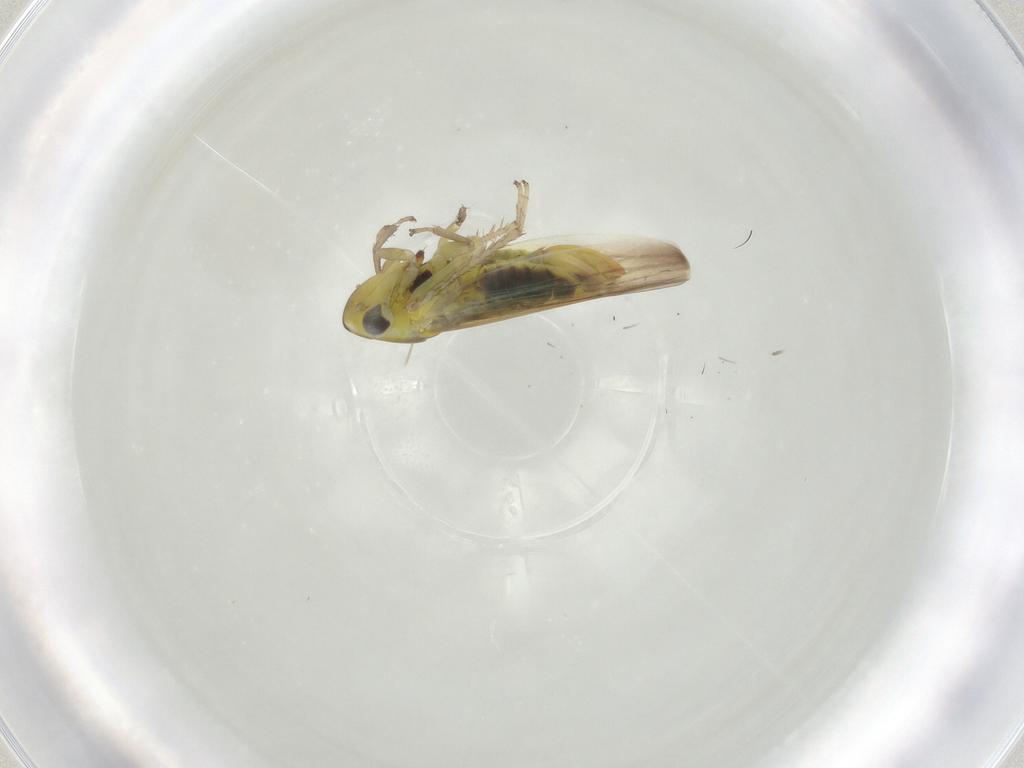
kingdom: Animalia
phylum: Arthropoda
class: Insecta
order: Hemiptera
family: Cicadellidae
